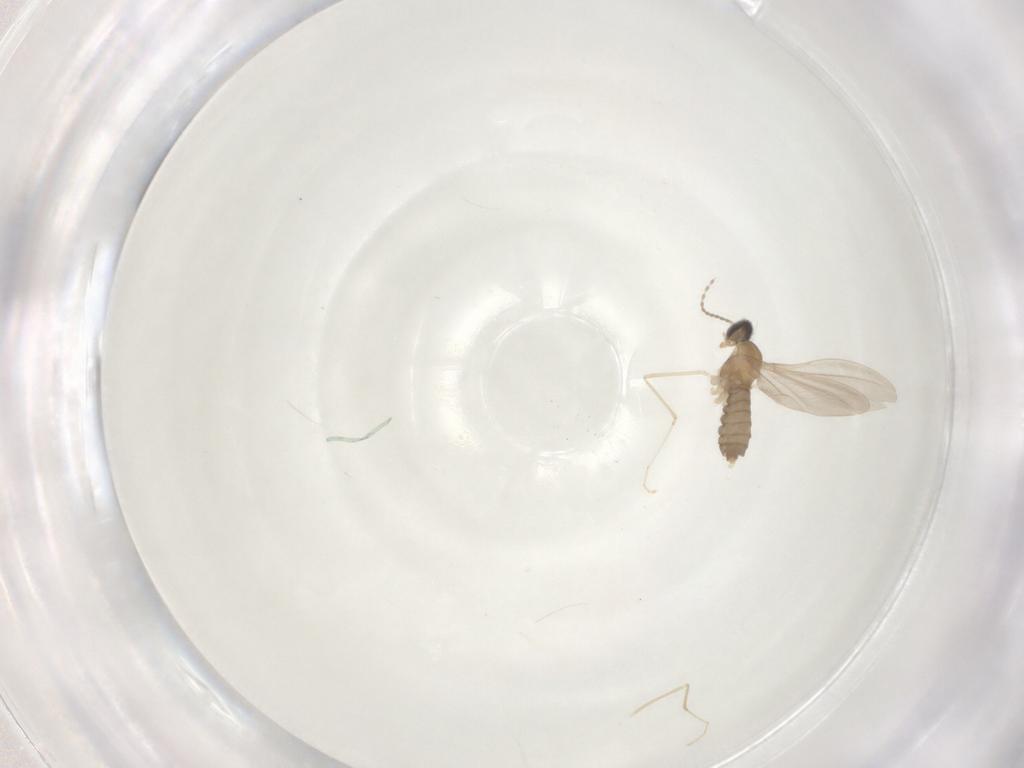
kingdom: Animalia
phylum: Arthropoda
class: Insecta
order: Diptera
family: Cecidomyiidae
